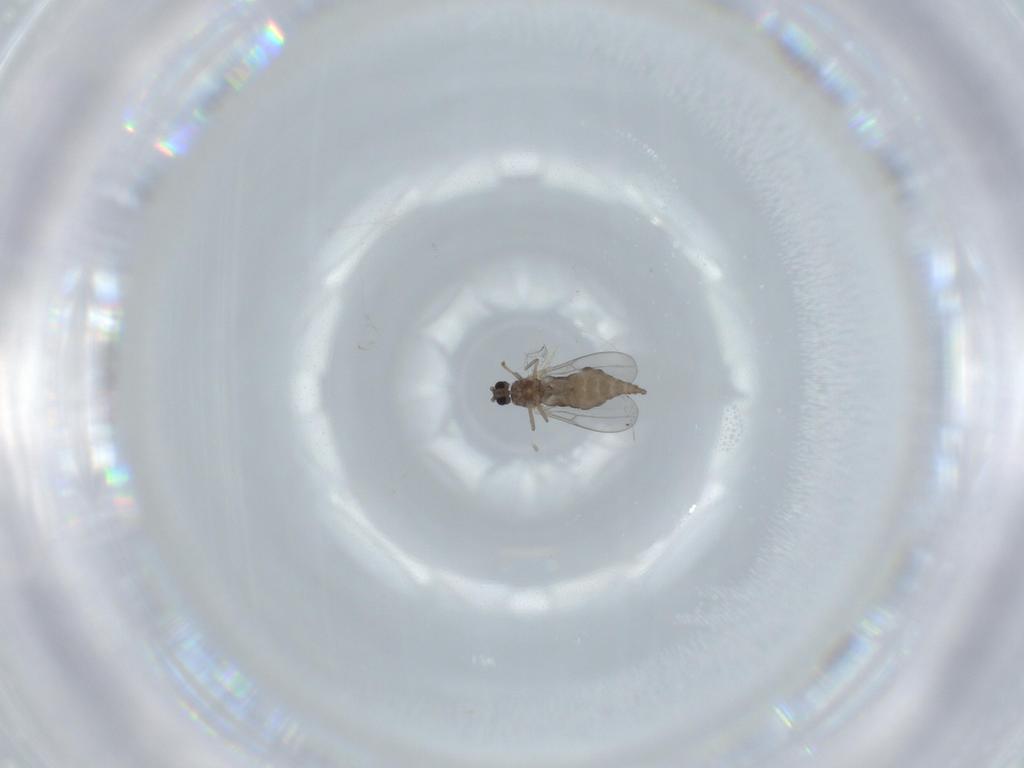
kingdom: Animalia
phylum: Arthropoda
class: Insecta
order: Diptera
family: Cecidomyiidae
